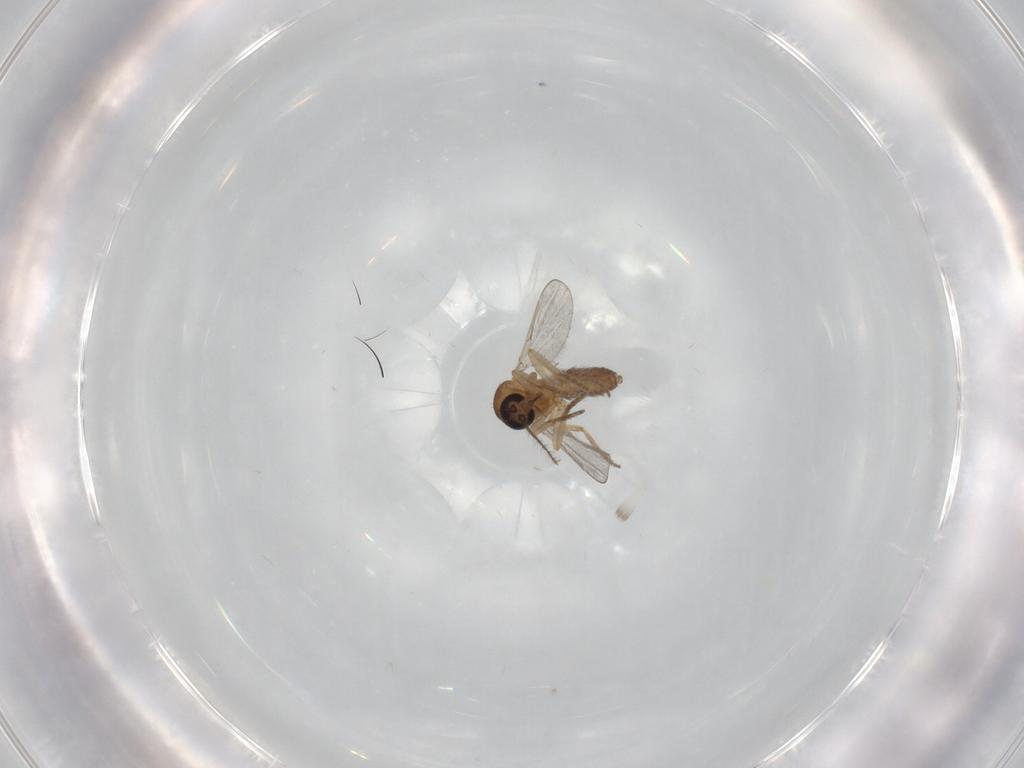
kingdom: Animalia
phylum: Arthropoda
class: Insecta
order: Diptera
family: Ceratopogonidae
